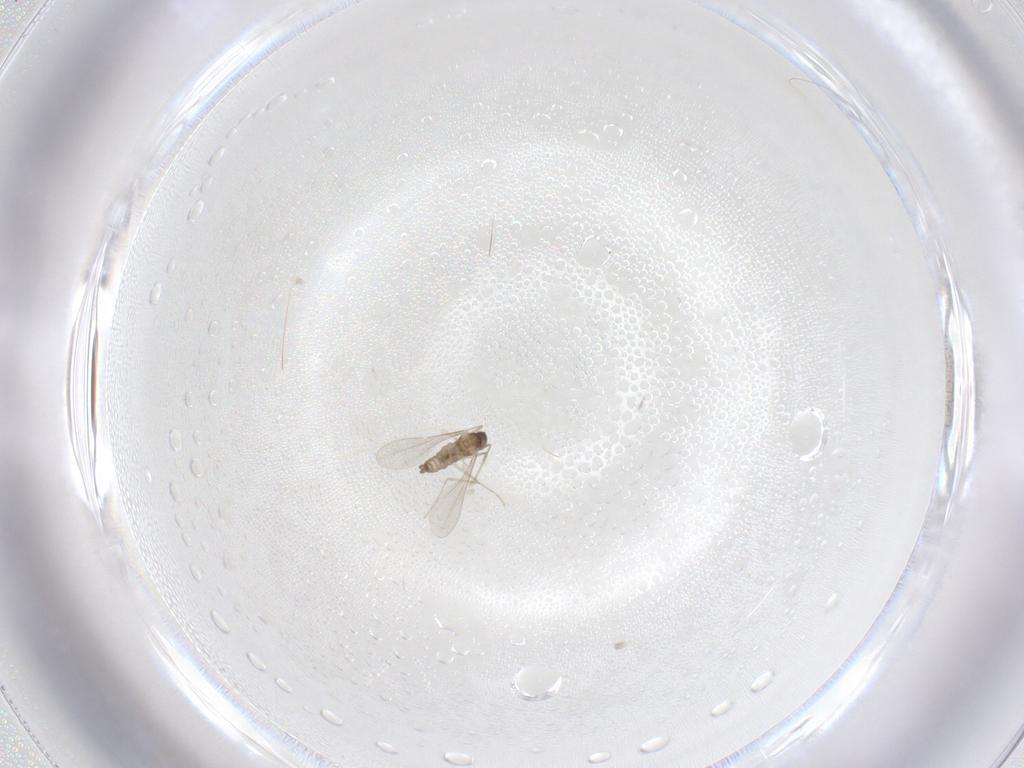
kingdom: Animalia
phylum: Arthropoda
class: Insecta
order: Diptera
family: Cecidomyiidae
